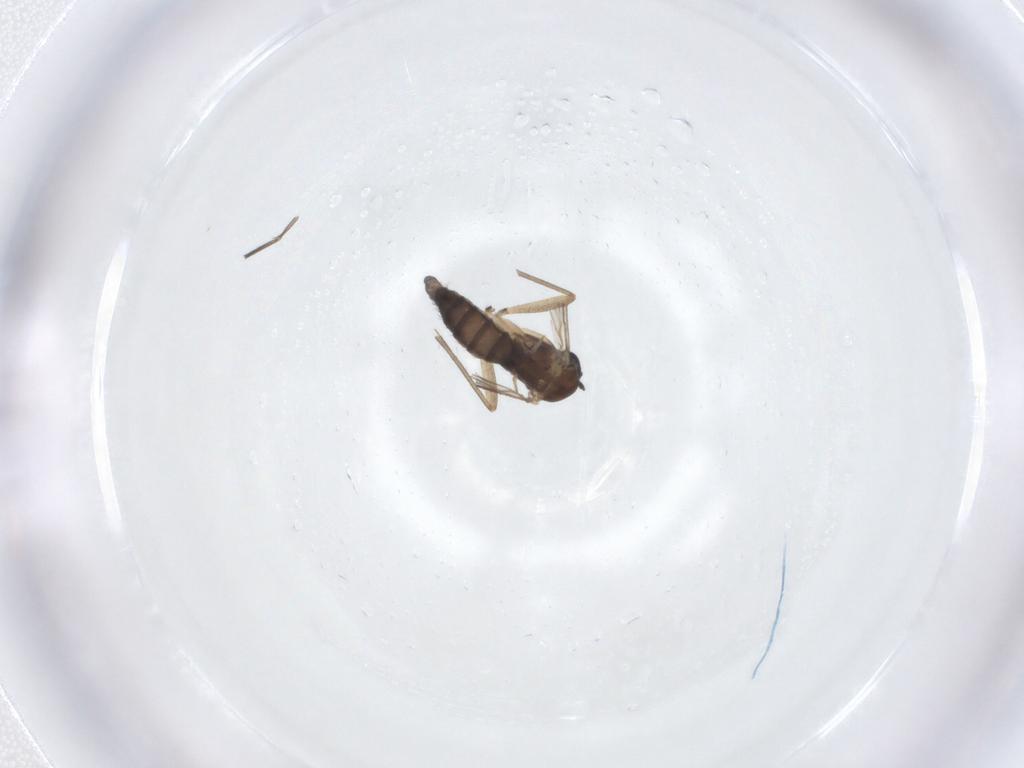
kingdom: Animalia
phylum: Arthropoda
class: Insecta
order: Diptera
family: Sciaridae
